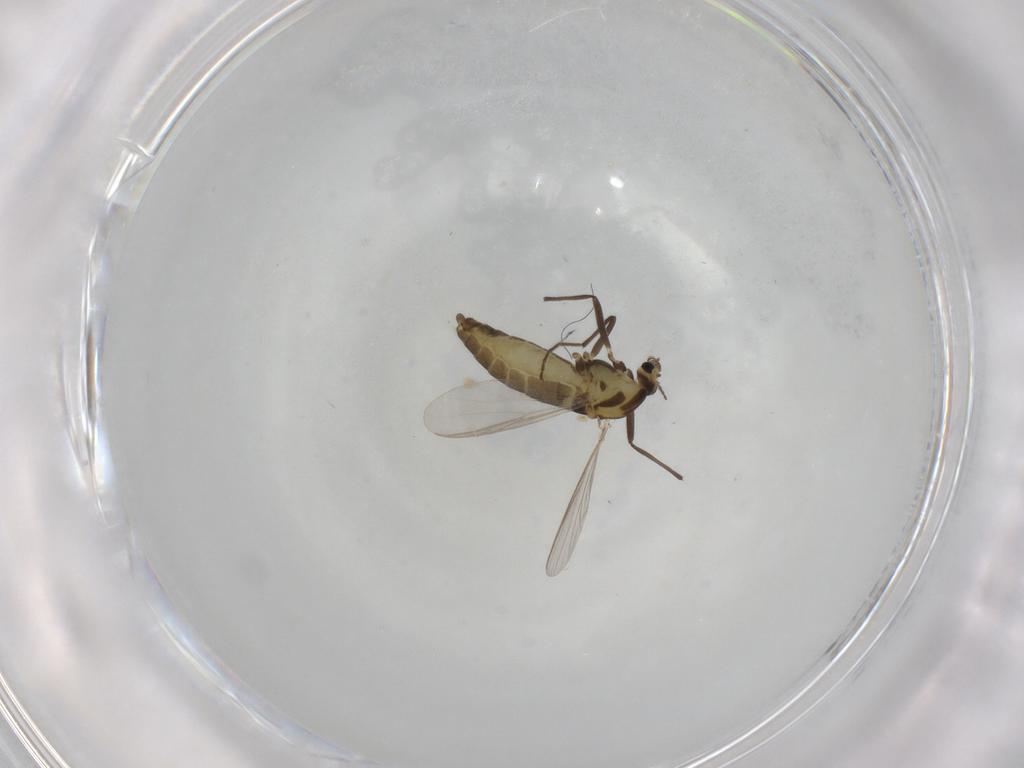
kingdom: Animalia
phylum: Arthropoda
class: Insecta
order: Diptera
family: Chironomidae
